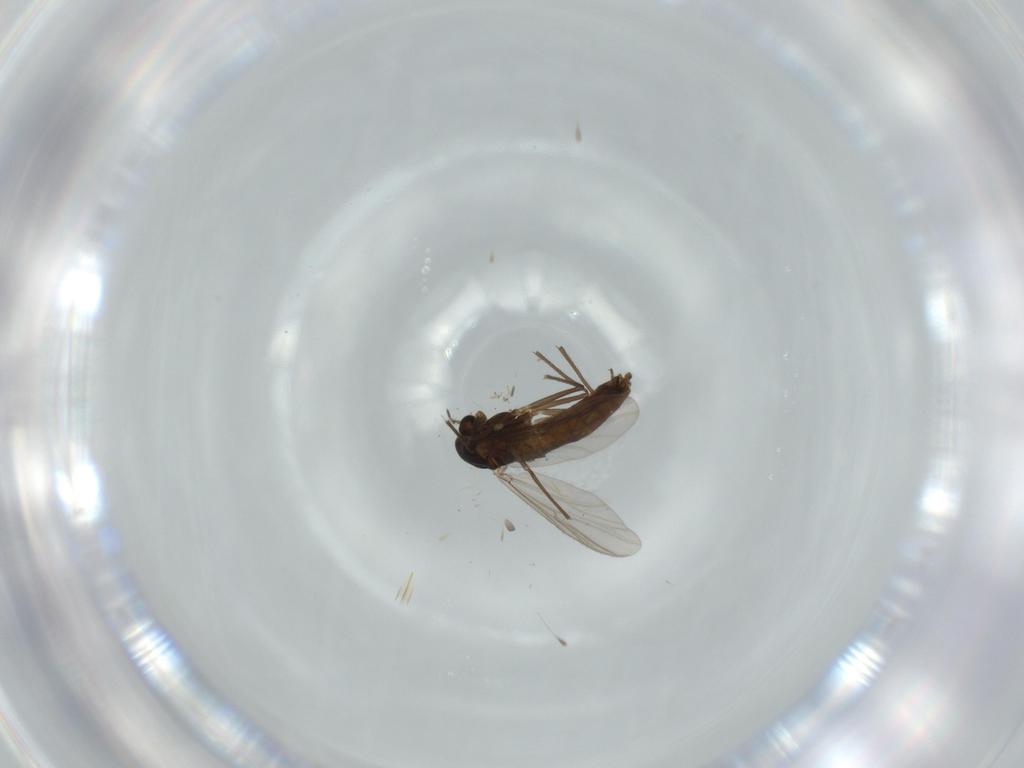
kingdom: Animalia
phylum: Arthropoda
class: Insecta
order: Diptera
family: Chironomidae
